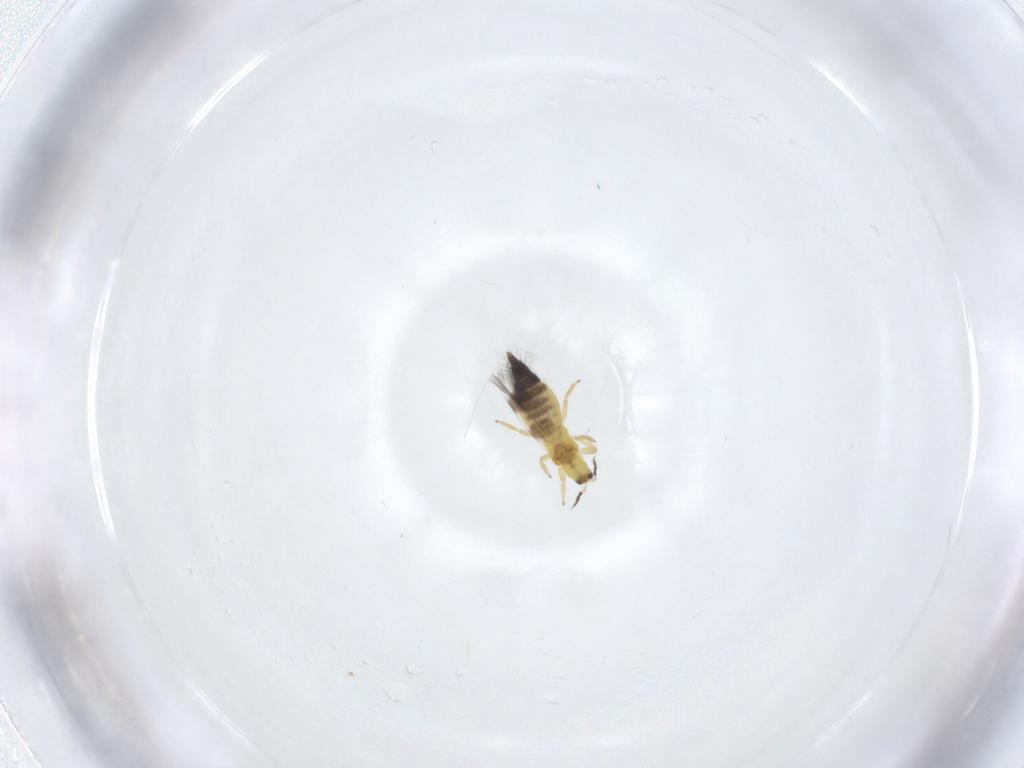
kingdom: Animalia
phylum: Arthropoda
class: Insecta
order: Thysanoptera
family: Aeolothripidae
